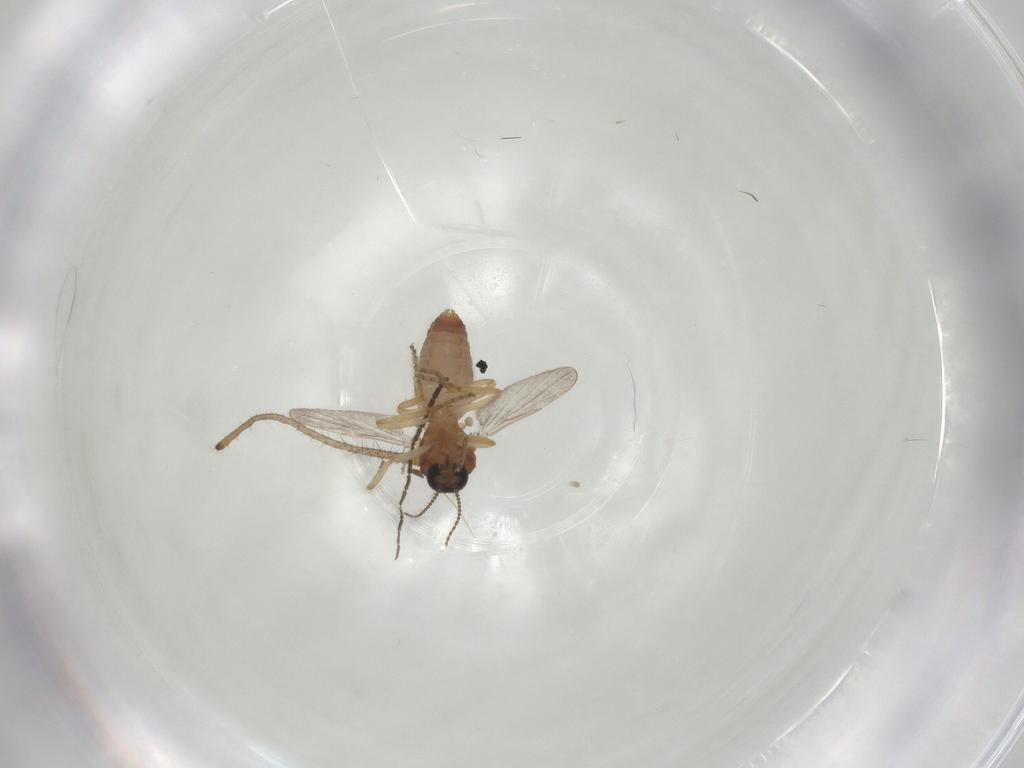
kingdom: Animalia
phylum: Arthropoda
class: Insecta
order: Diptera
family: Ceratopogonidae
